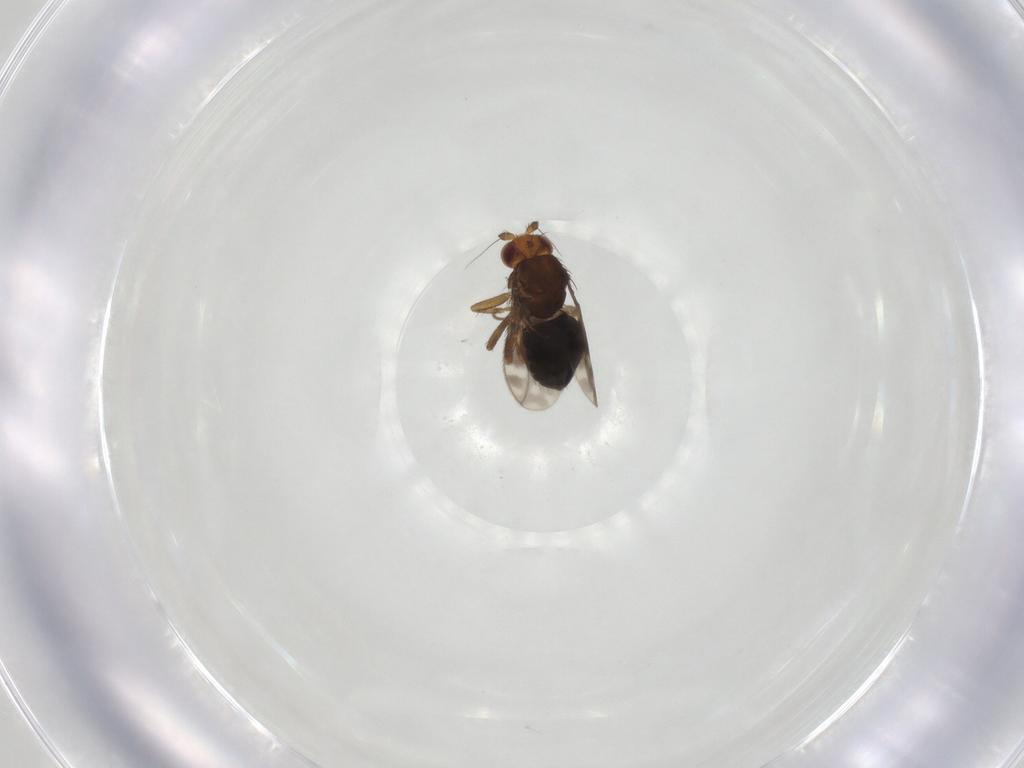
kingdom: Animalia
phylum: Arthropoda
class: Insecta
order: Diptera
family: Sphaeroceridae
